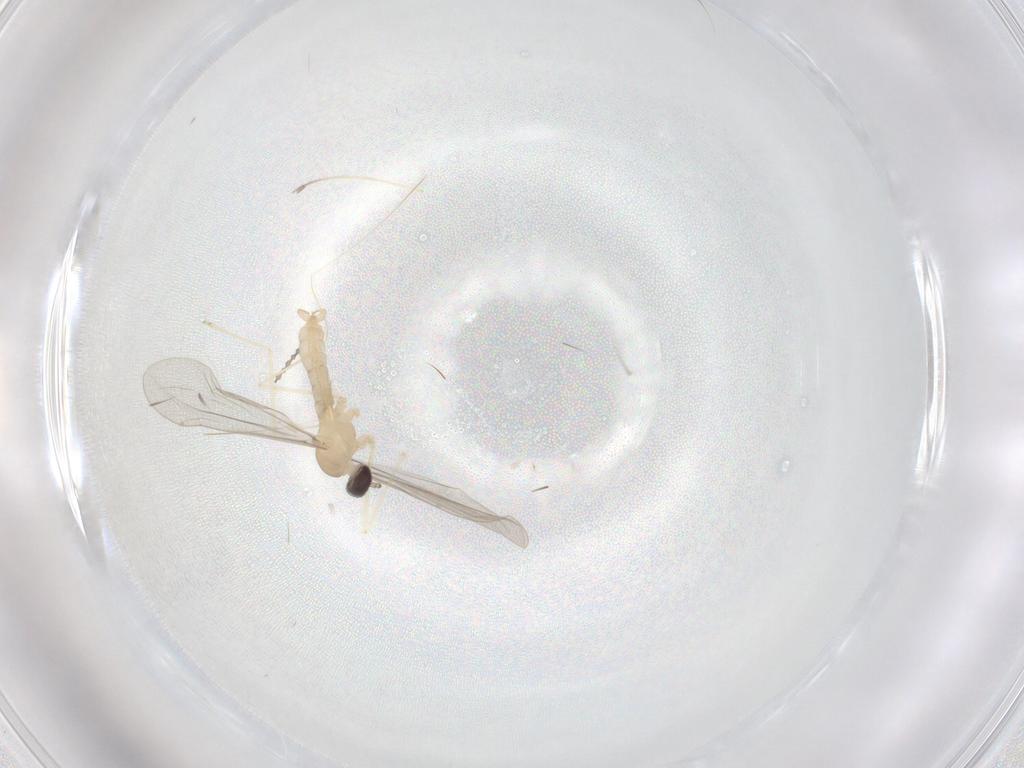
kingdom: Animalia
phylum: Arthropoda
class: Insecta
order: Diptera
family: Cecidomyiidae
